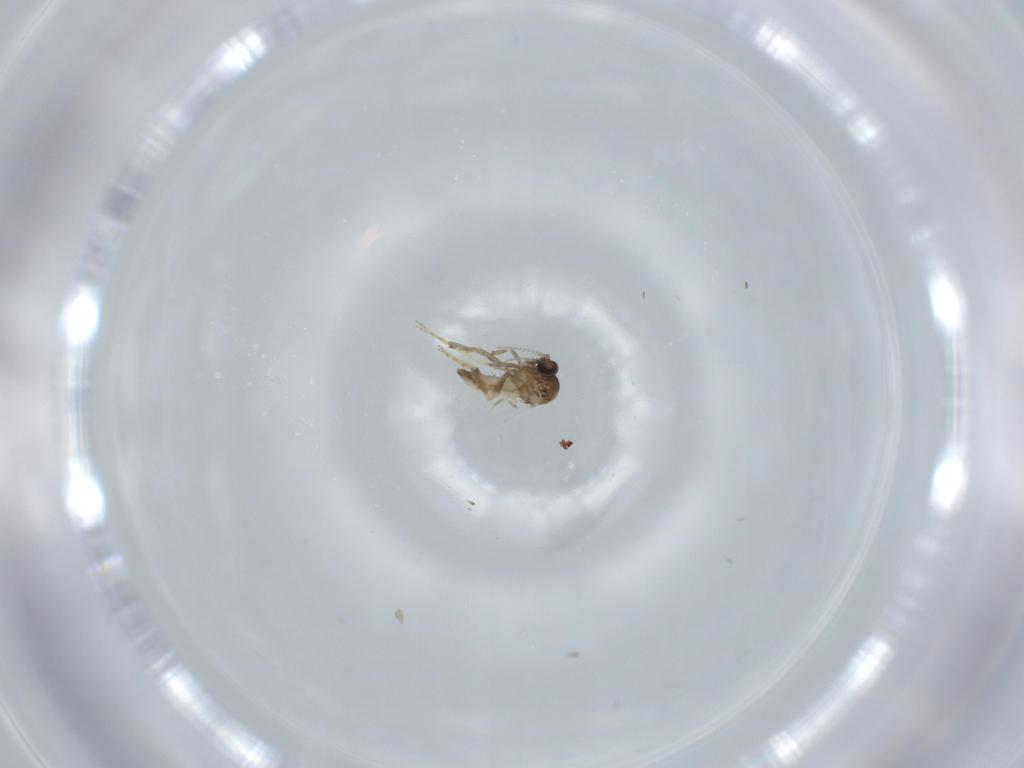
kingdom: Animalia
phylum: Arthropoda
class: Insecta
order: Diptera
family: Ceratopogonidae
